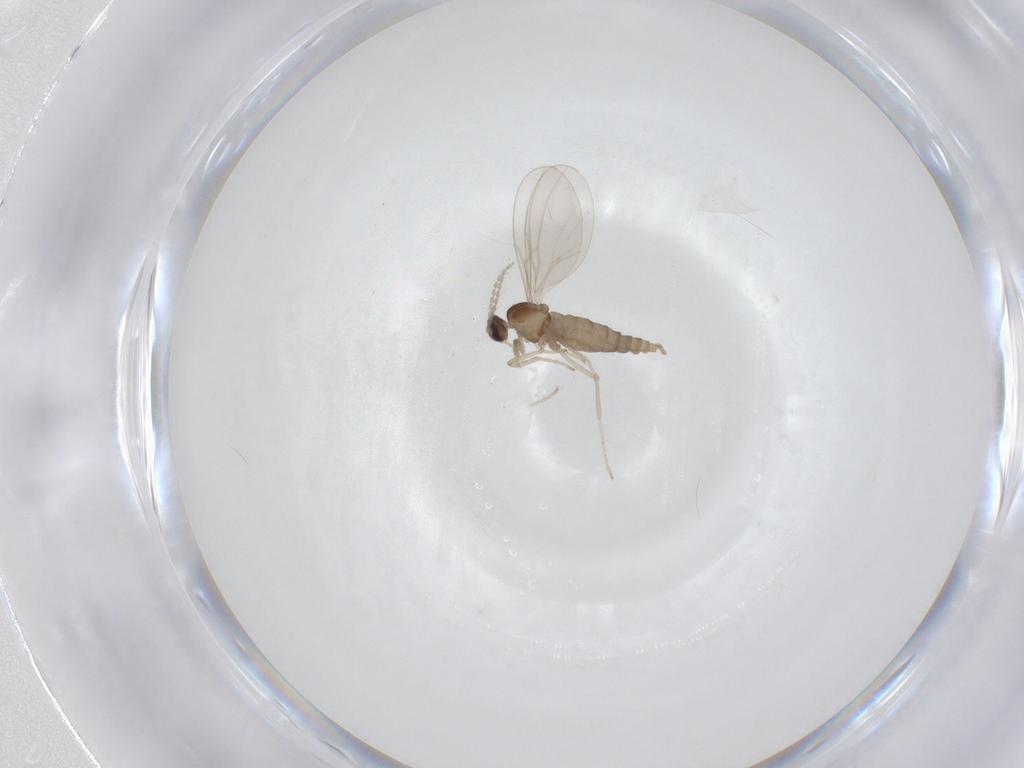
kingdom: Animalia
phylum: Arthropoda
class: Insecta
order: Diptera
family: Cecidomyiidae
